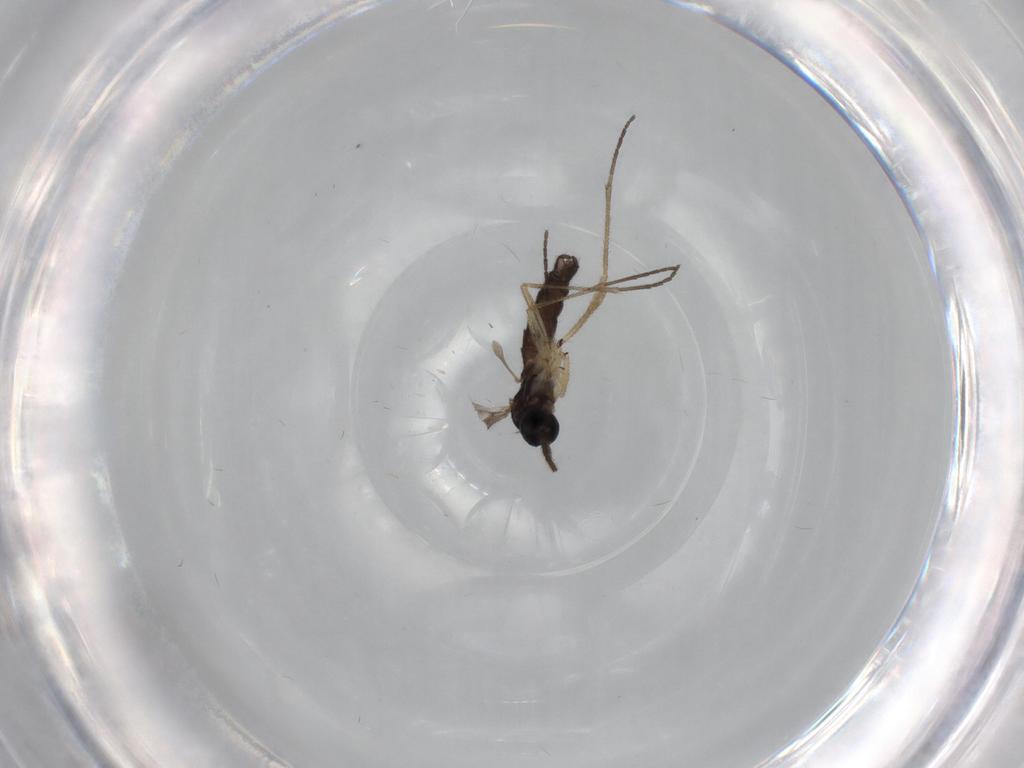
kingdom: Animalia
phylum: Arthropoda
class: Insecta
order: Diptera
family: Sciaridae
